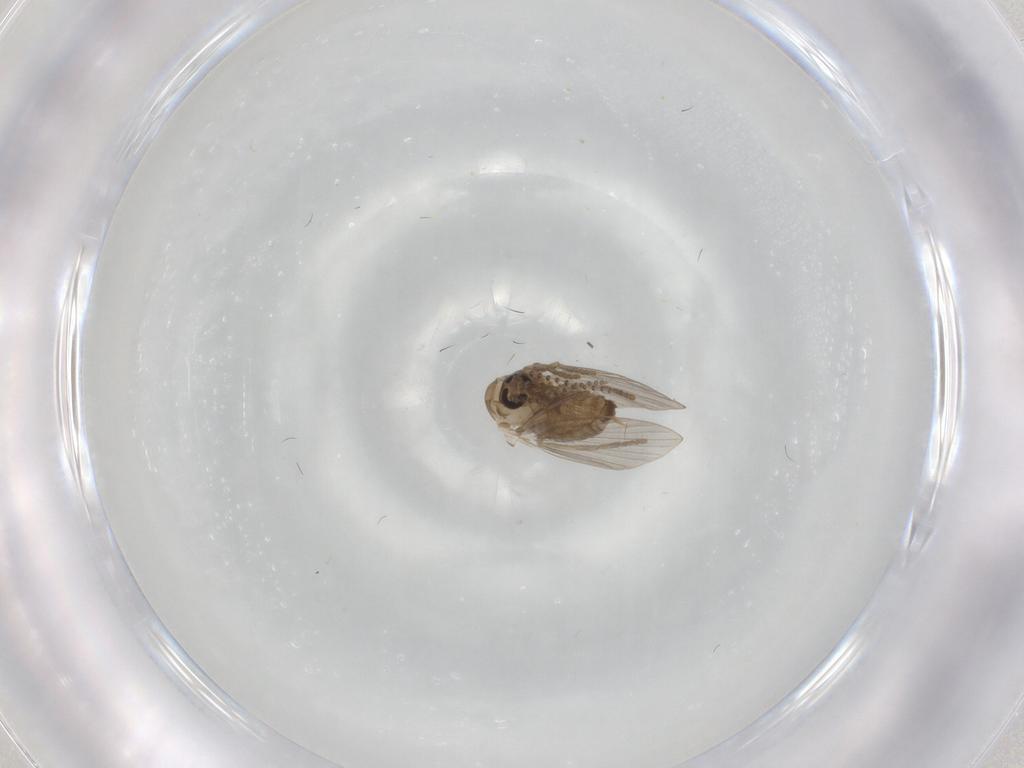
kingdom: Animalia
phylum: Arthropoda
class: Insecta
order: Diptera
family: Psychodidae
